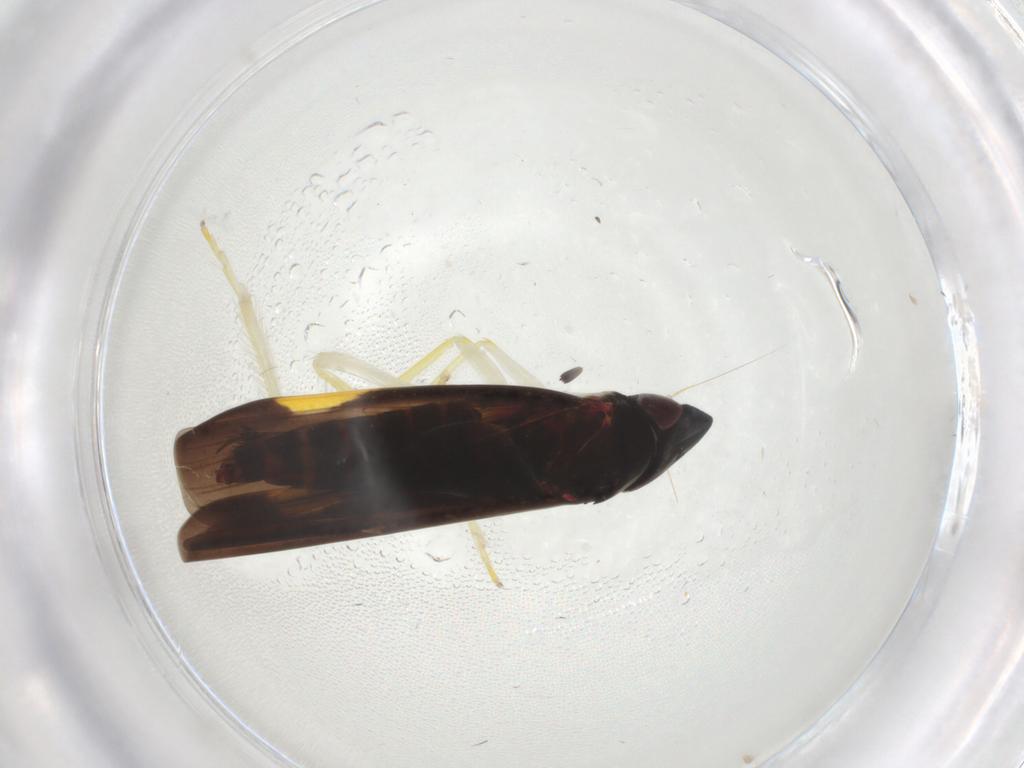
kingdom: Animalia
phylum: Arthropoda
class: Insecta
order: Hemiptera
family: Cicadellidae
